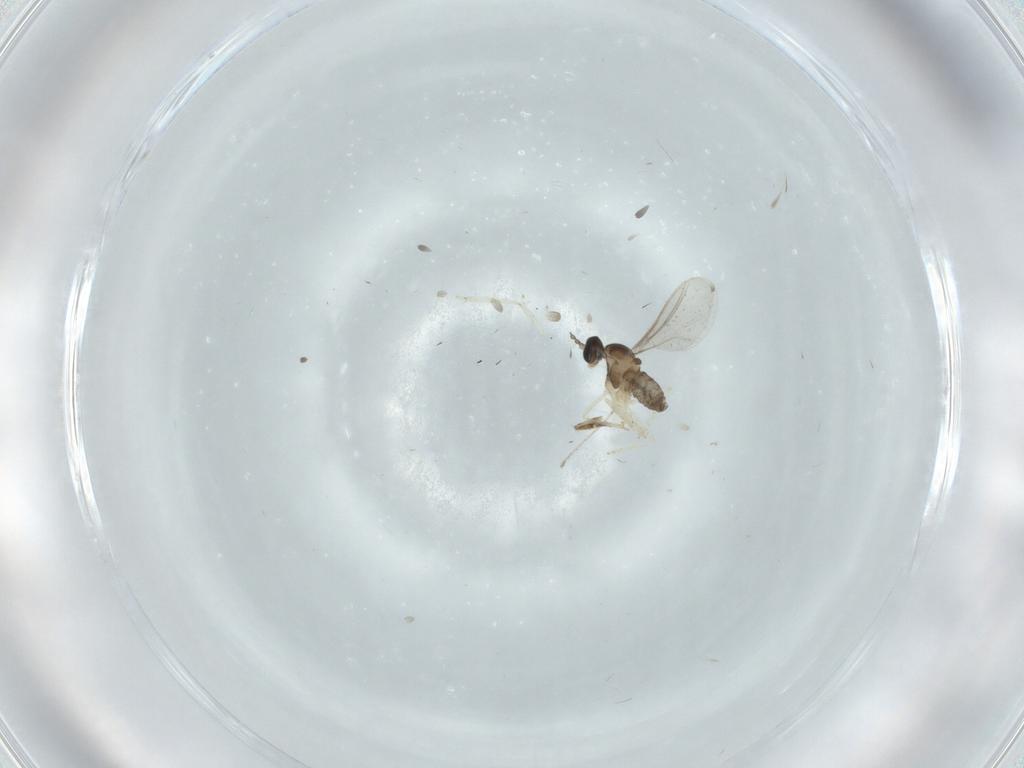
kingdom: Animalia
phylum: Arthropoda
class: Insecta
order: Diptera
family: Cecidomyiidae
